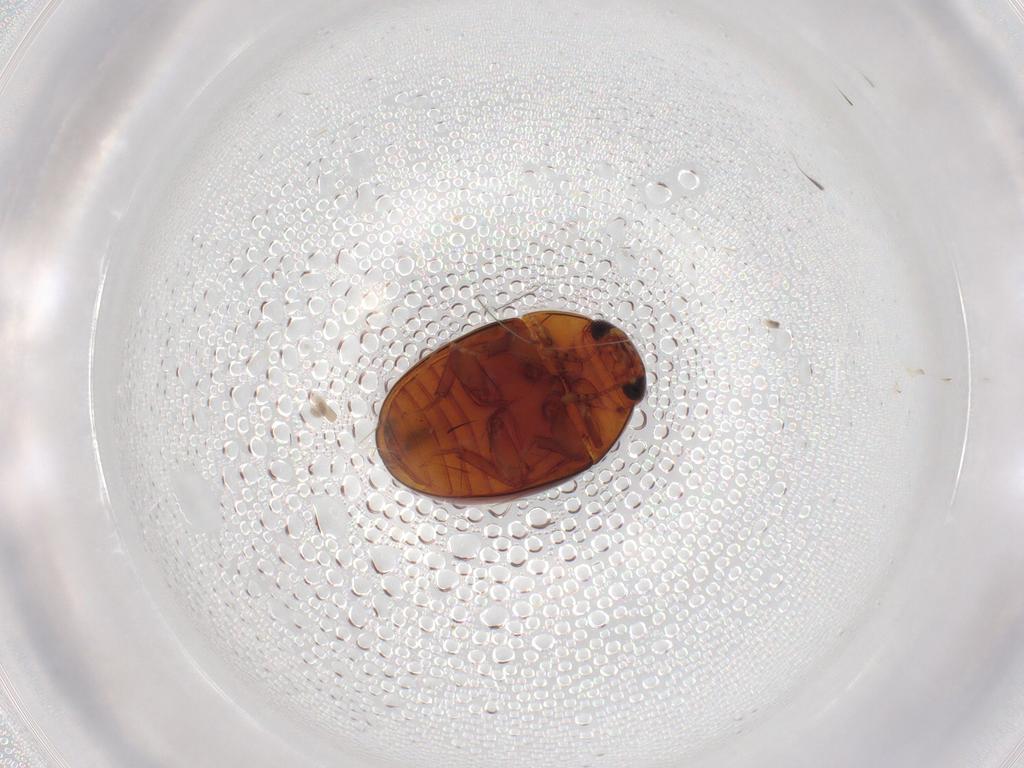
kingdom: Animalia
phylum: Arthropoda
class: Insecta
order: Coleoptera
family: Phalacridae
